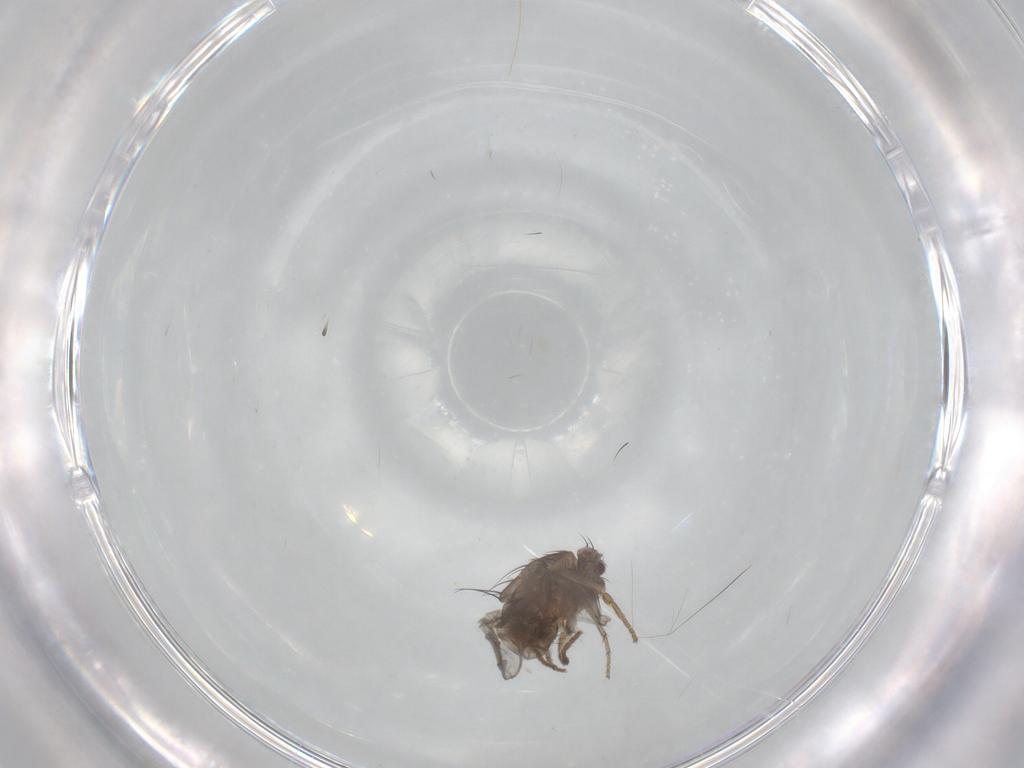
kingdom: Animalia
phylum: Arthropoda
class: Insecta
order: Diptera
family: Sphaeroceridae
